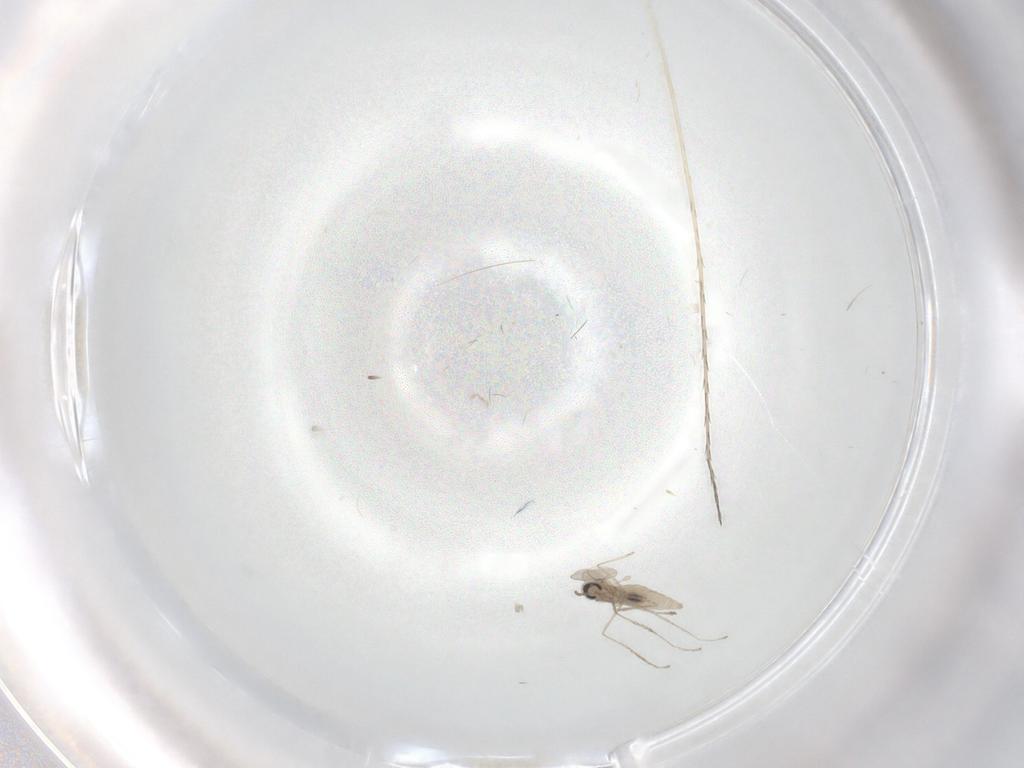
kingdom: Animalia
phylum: Arthropoda
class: Insecta
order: Diptera
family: Cecidomyiidae
